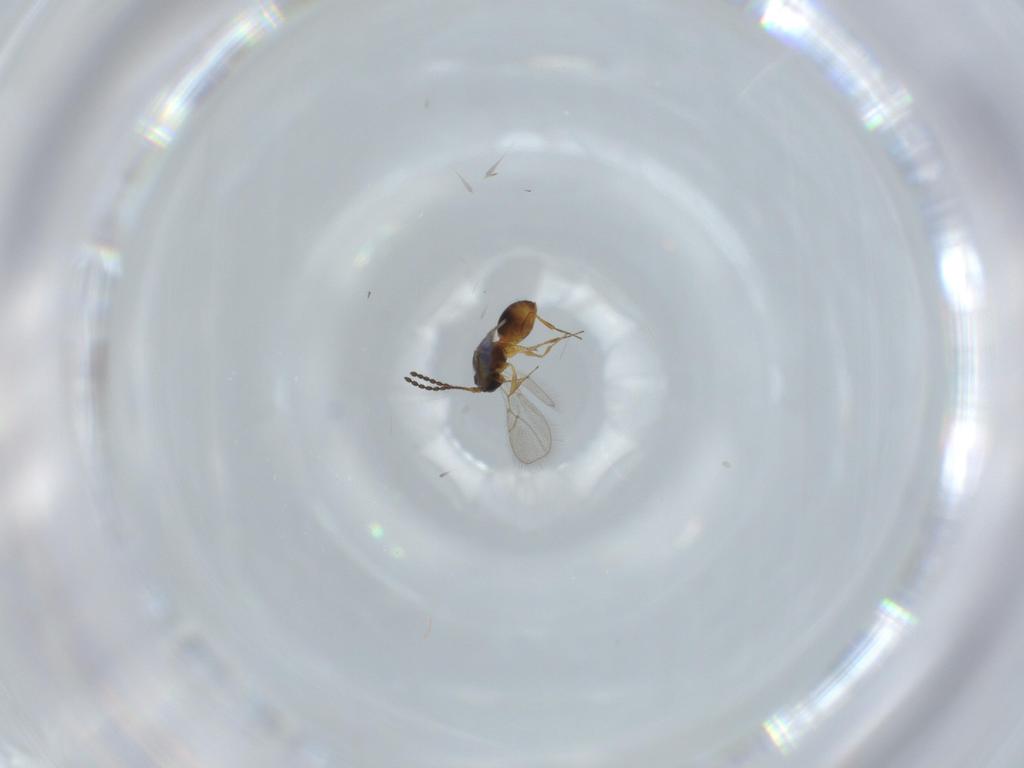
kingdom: Animalia
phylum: Arthropoda
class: Insecta
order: Hymenoptera
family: Figitidae
